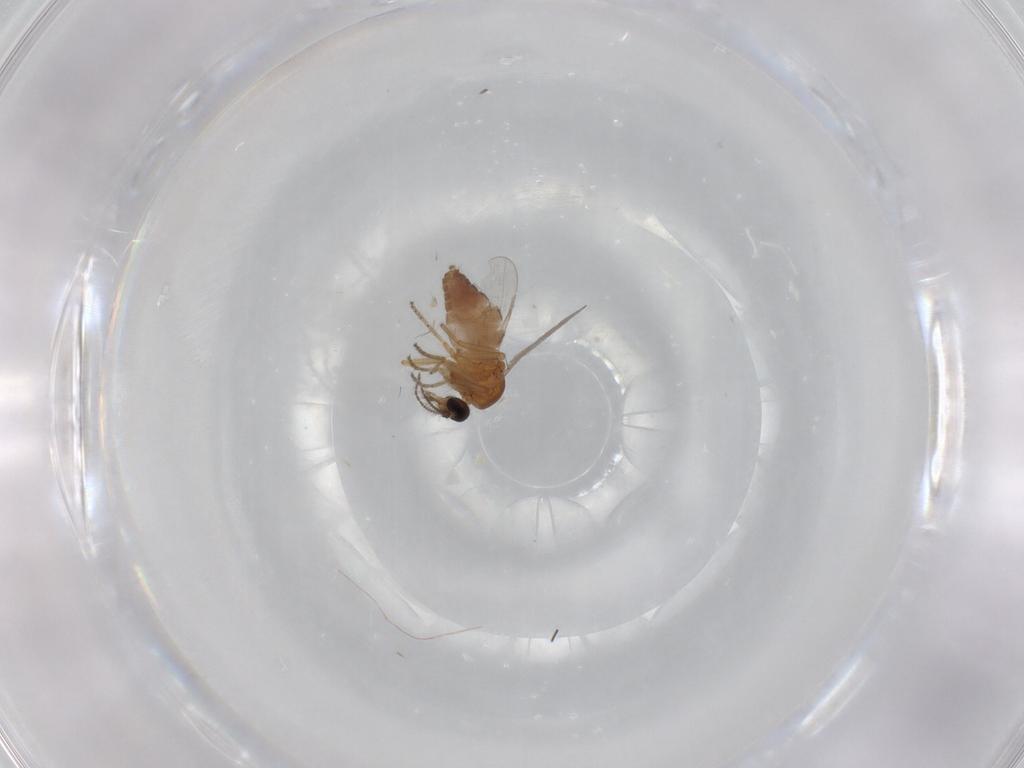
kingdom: Animalia
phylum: Arthropoda
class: Insecta
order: Diptera
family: Ceratopogonidae
